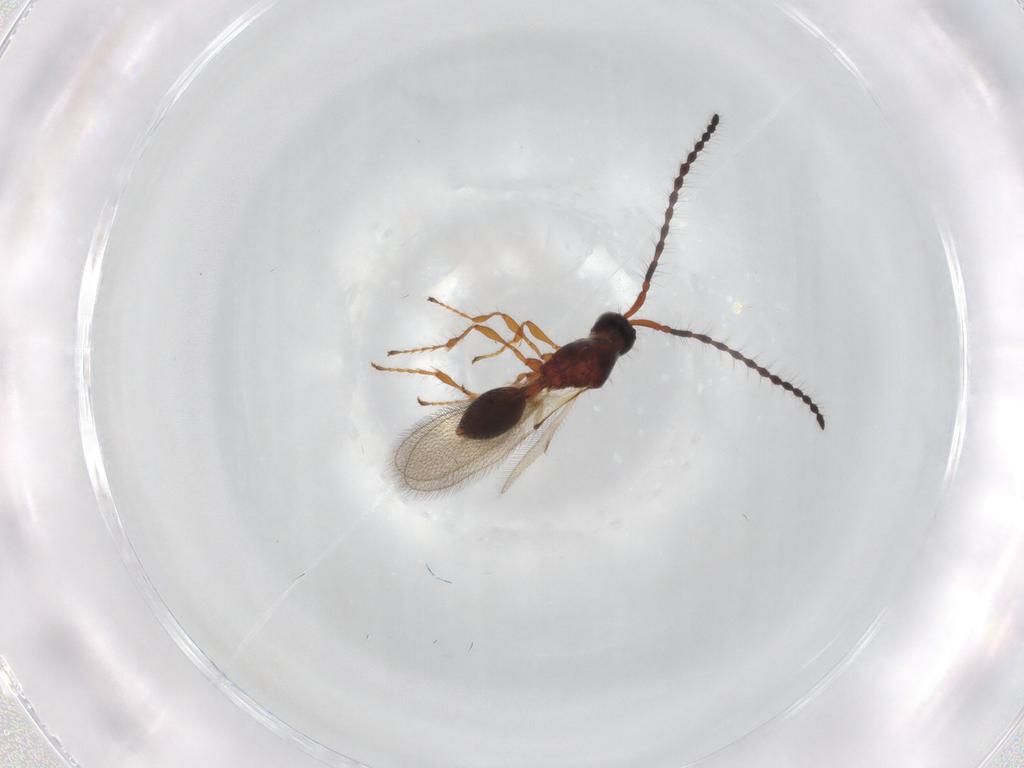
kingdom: Animalia
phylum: Arthropoda
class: Insecta
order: Hymenoptera
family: Diapriidae
